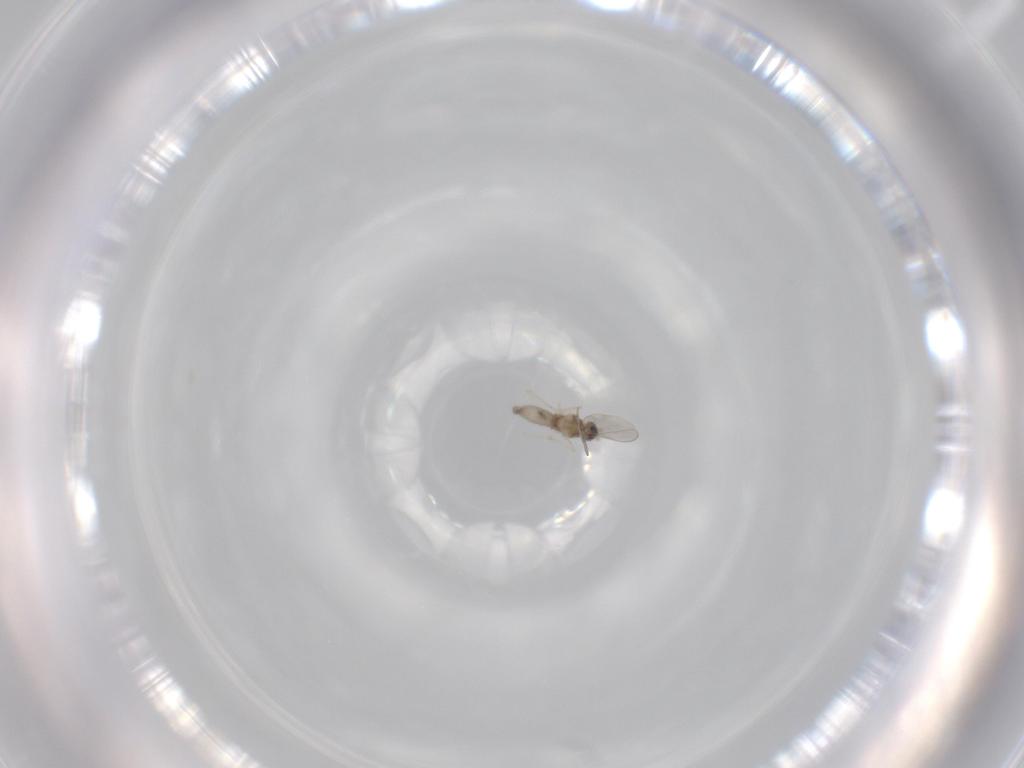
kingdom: Animalia
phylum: Arthropoda
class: Insecta
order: Diptera
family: Cecidomyiidae
